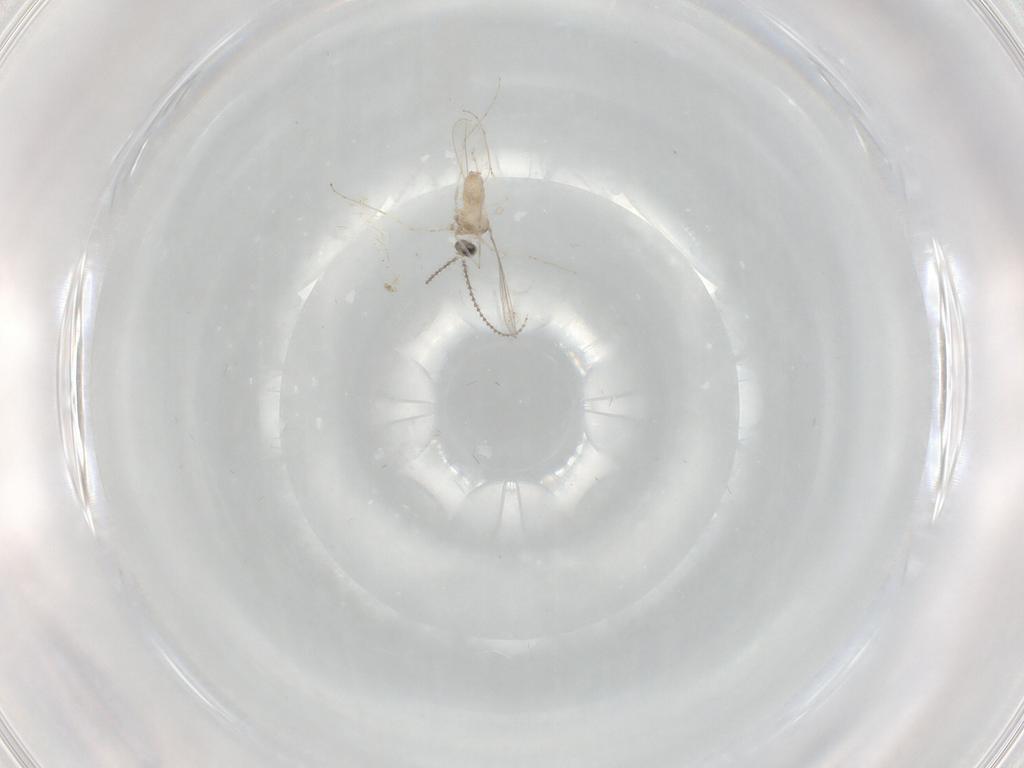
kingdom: Animalia
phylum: Arthropoda
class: Insecta
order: Diptera
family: Cecidomyiidae
